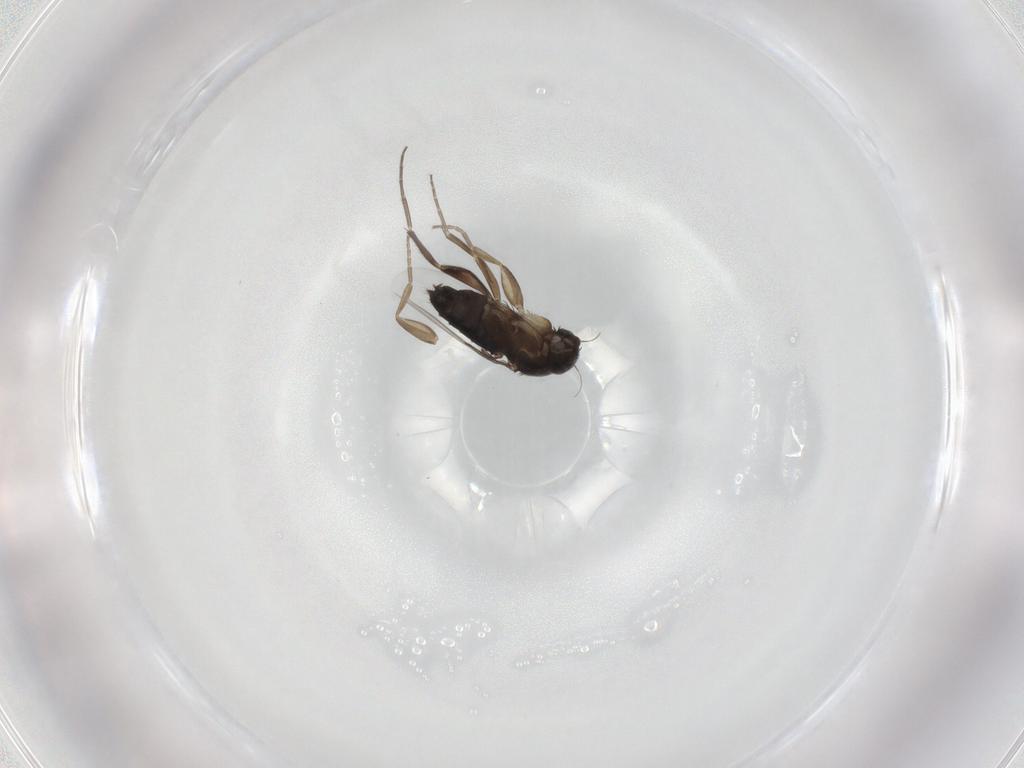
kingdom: Animalia
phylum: Arthropoda
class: Insecta
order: Diptera
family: Phoridae
